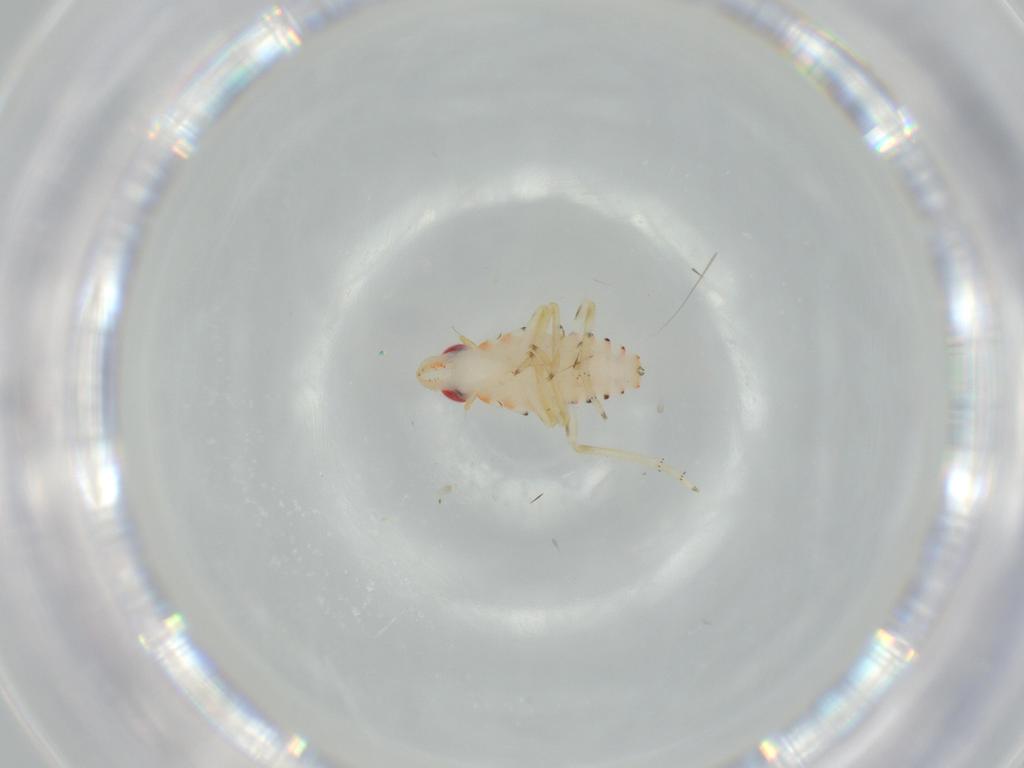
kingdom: Animalia
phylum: Arthropoda
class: Insecta
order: Hemiptera
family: Tropiduchidae
